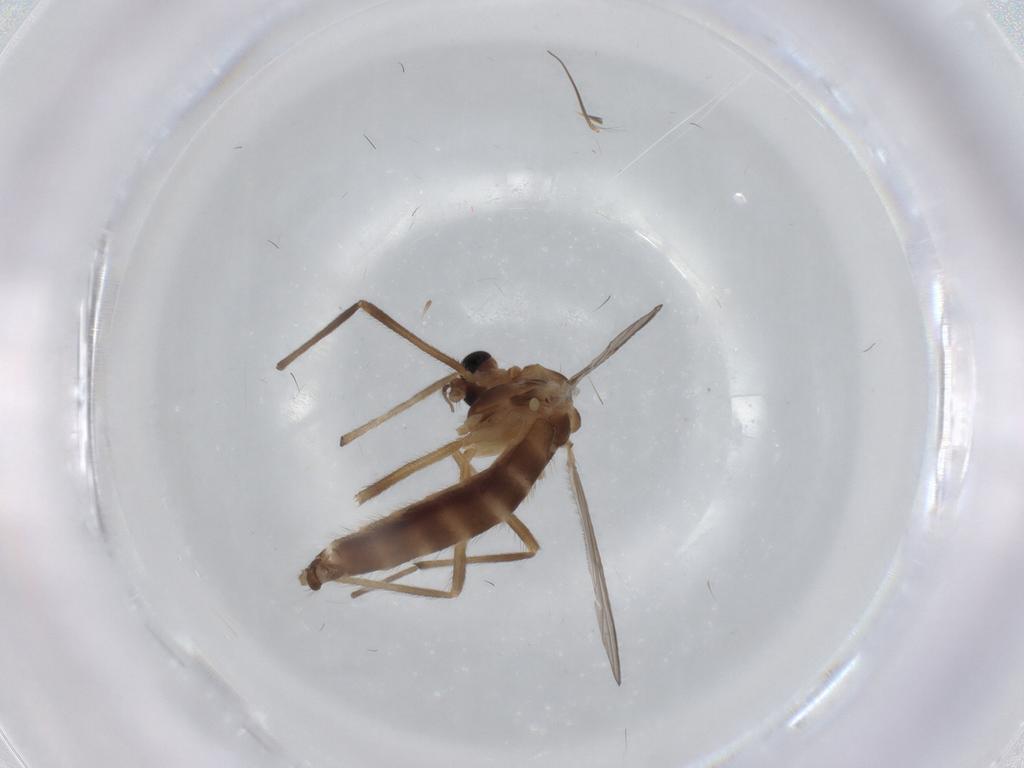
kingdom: Animalia
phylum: Arthropoda
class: Insecta
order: Diptera
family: Chironomidae
